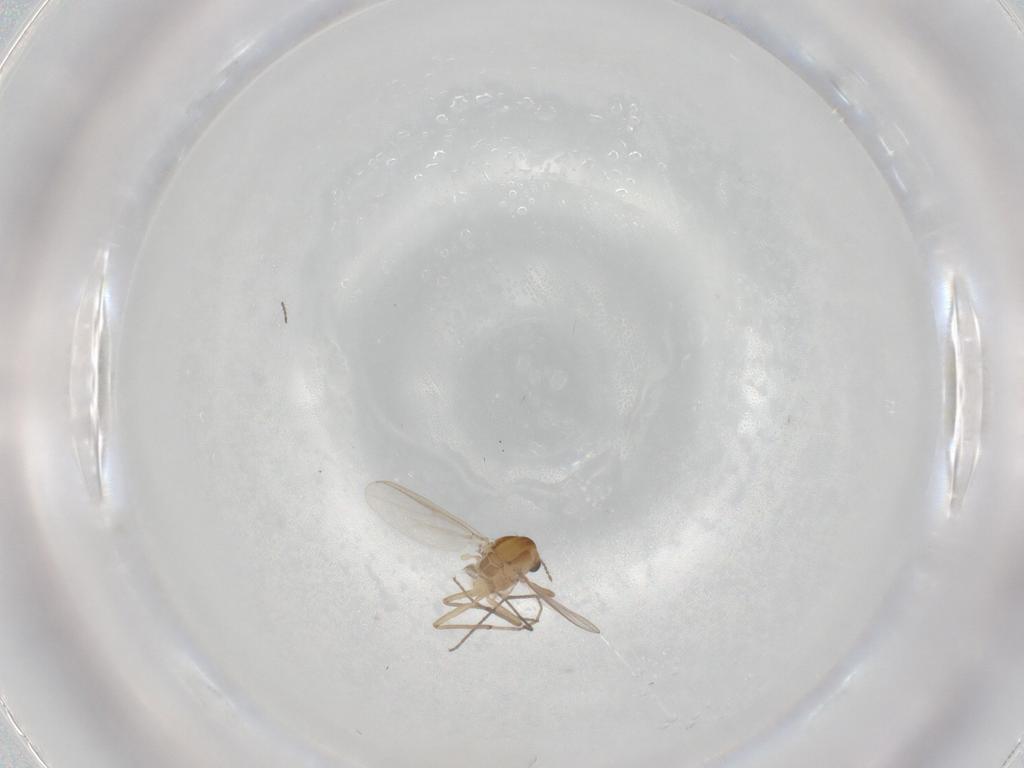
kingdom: Animalia
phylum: Arthropoda
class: Insecta
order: Diptera
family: Chironomidae
